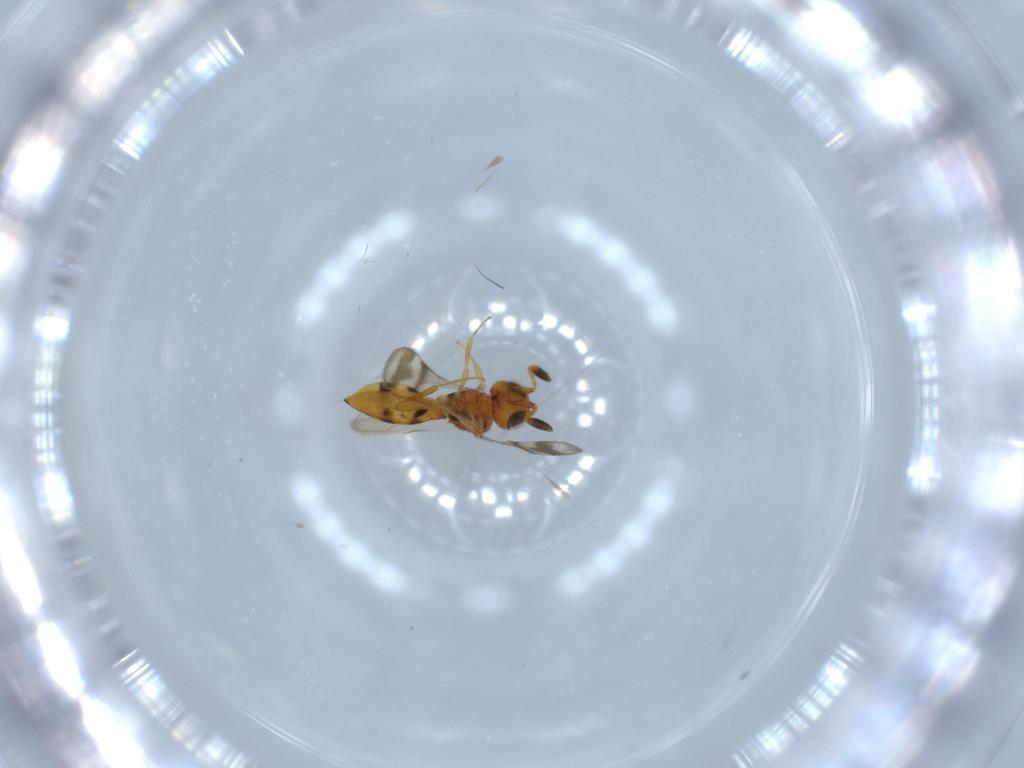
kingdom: Animalia
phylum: Arthropoda
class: Insecta
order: Hymenoptera
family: Scelionidae
